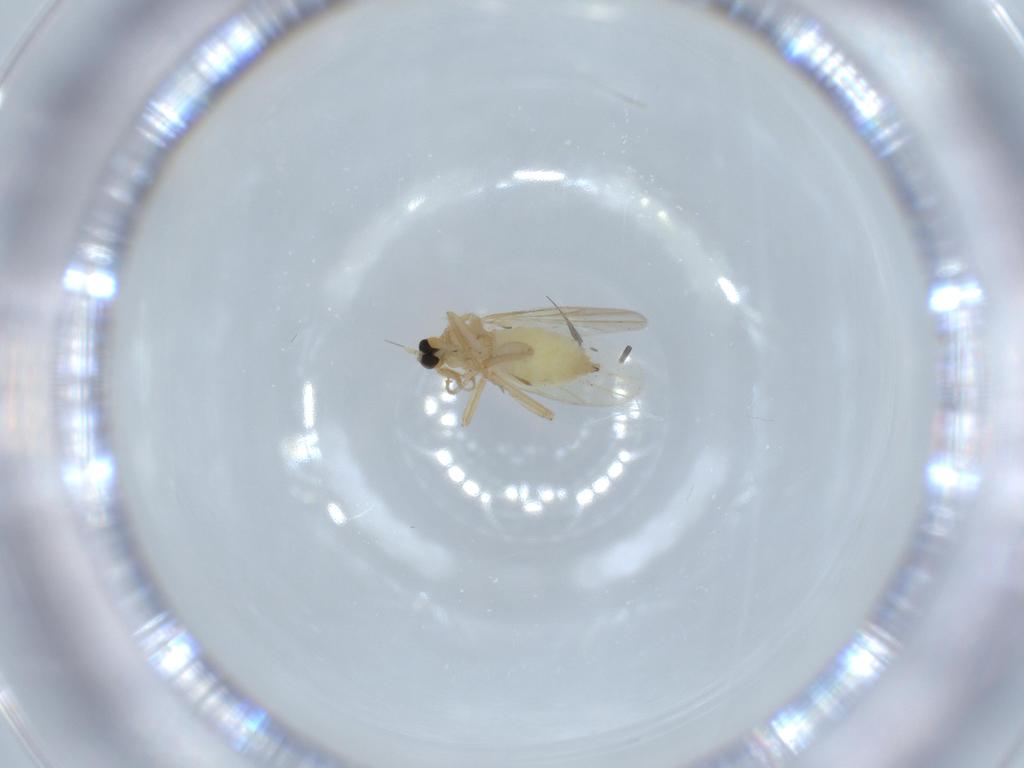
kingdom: Animalia
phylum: Arthropoda
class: Insecta
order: Diptera
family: Hybotidae
